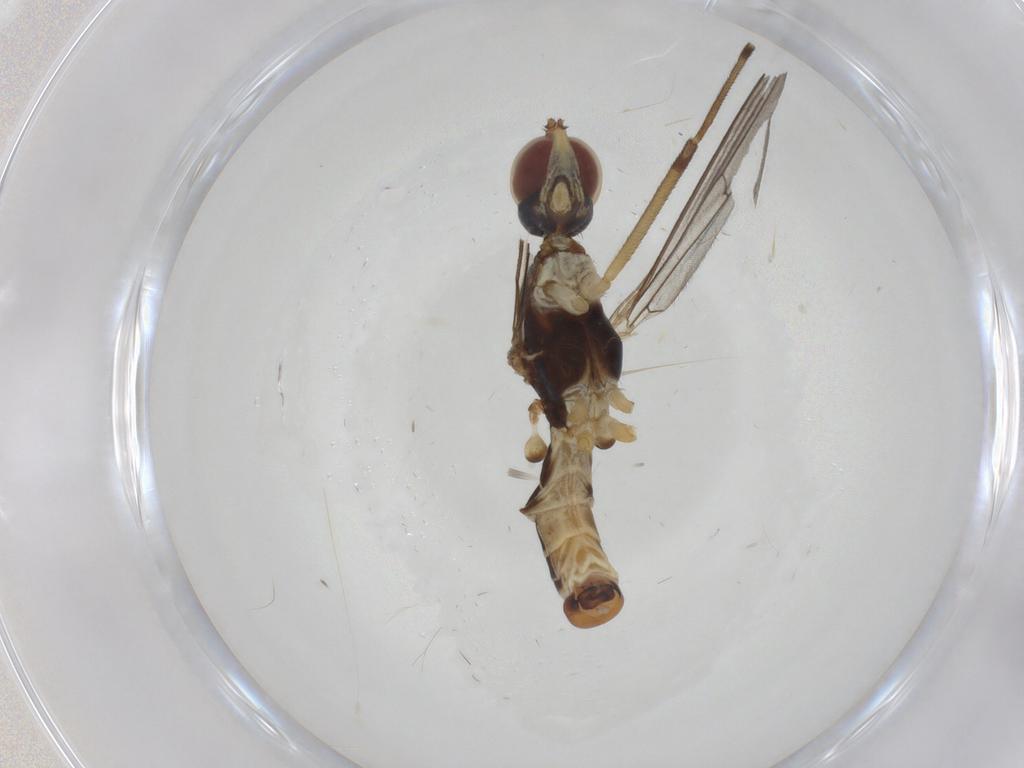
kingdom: Animalia
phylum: Arthropoda
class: Insecta
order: Diptera
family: Micropezidae
